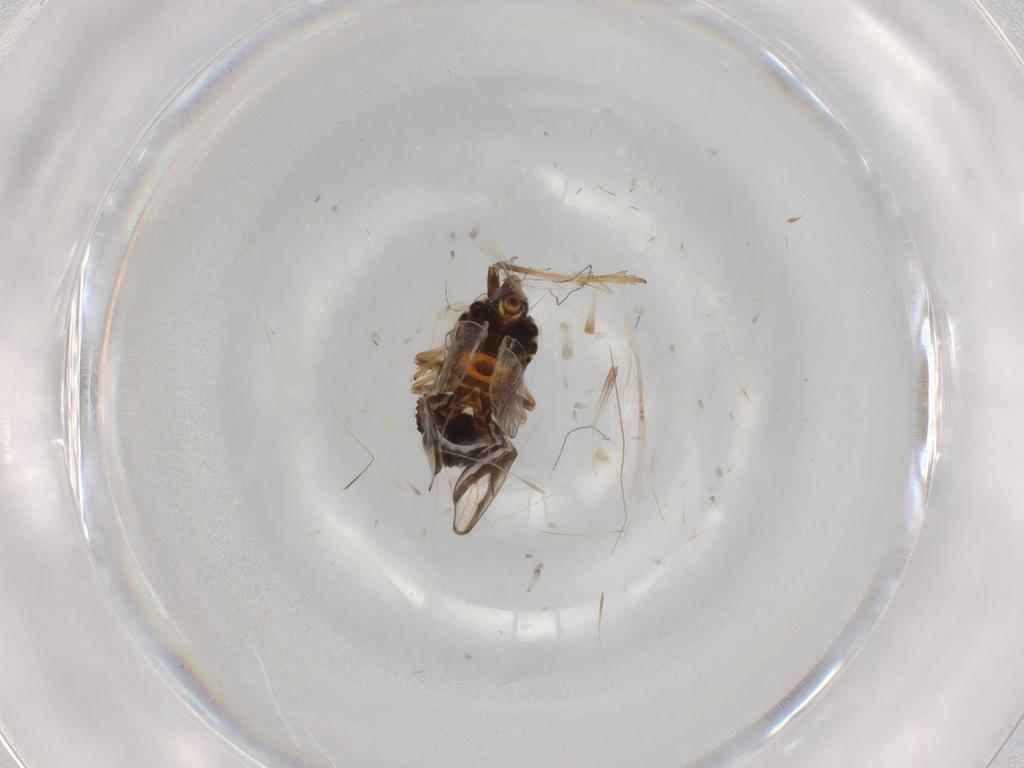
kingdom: Animalia
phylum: Arthropoda
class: Insecta
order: Hemiptera
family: Delphacidae
